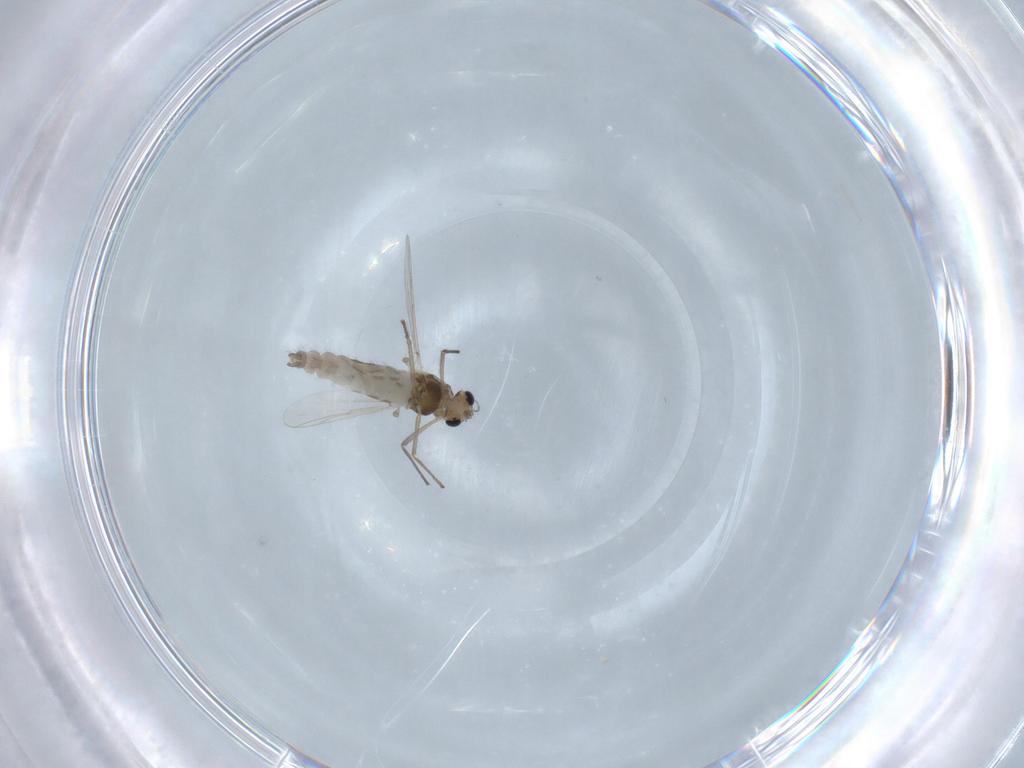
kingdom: Animalia
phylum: Arthropoda
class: Insecta
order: Diptera
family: Chironomidae
